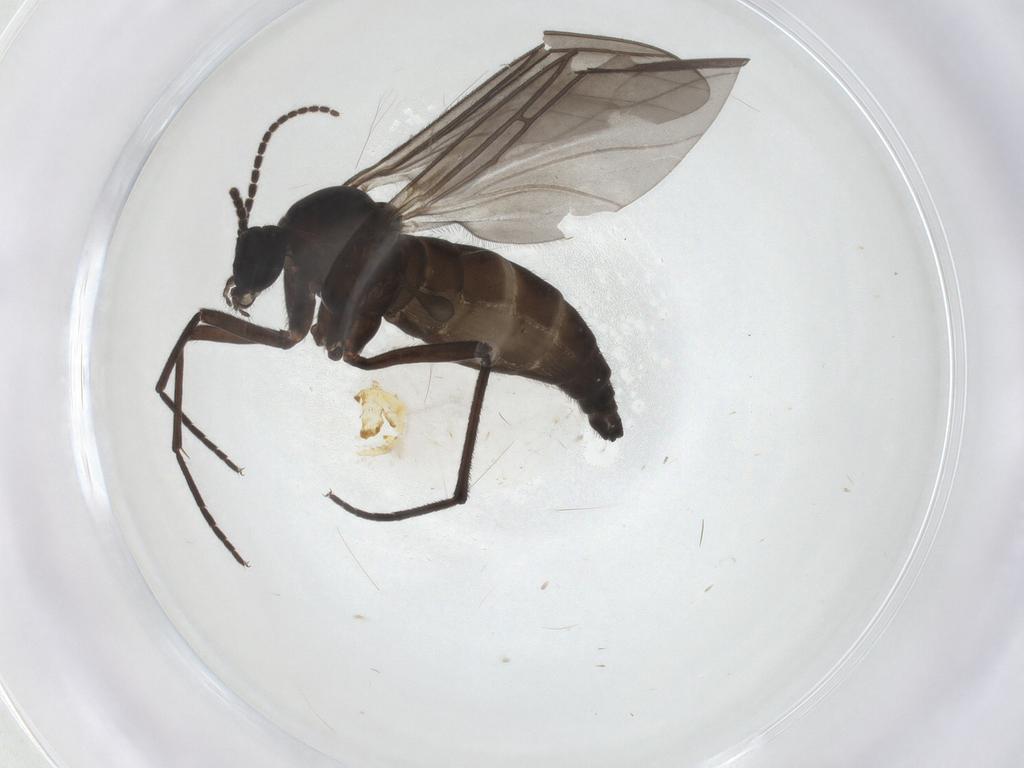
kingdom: Animalia
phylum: Arthropoda
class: Insecta
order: Diptera
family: Sciaridae
